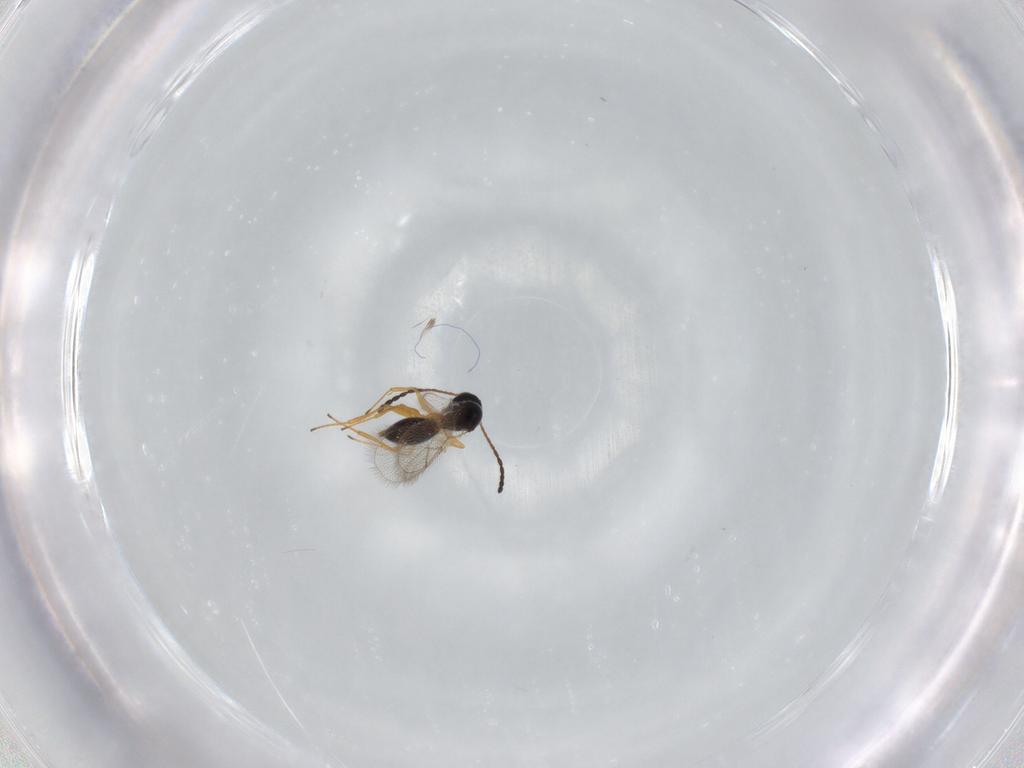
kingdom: Animalia
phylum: Arthropoda
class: Insecta
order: Hymenoptera
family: Figitidae
